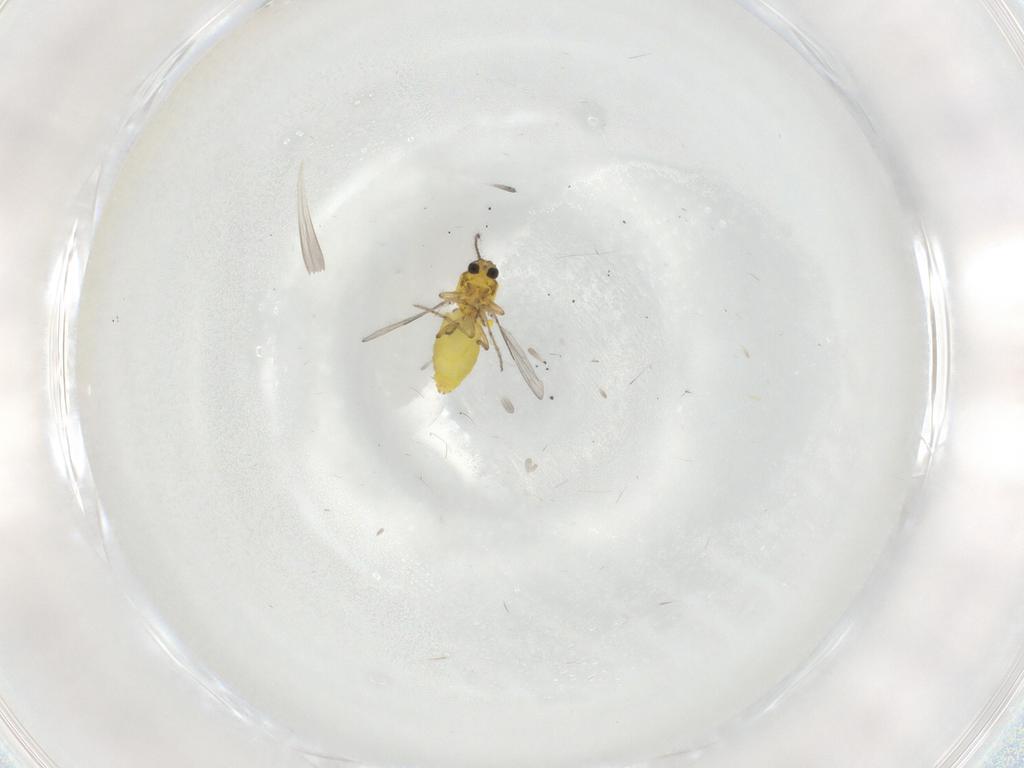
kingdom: Animalia
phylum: Arthropoda
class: Insecta
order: Diptera
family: Ceratopogonidae
